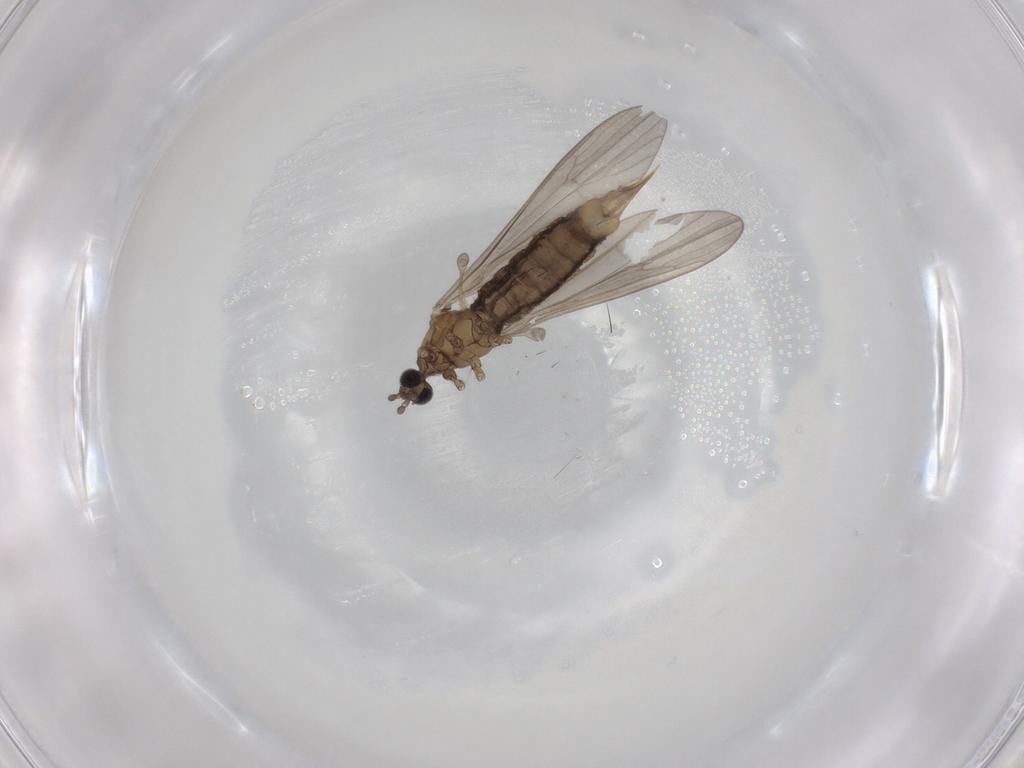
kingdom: Animalia
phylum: Arthropoda
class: Insecta
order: Diptera
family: Limoniidae
